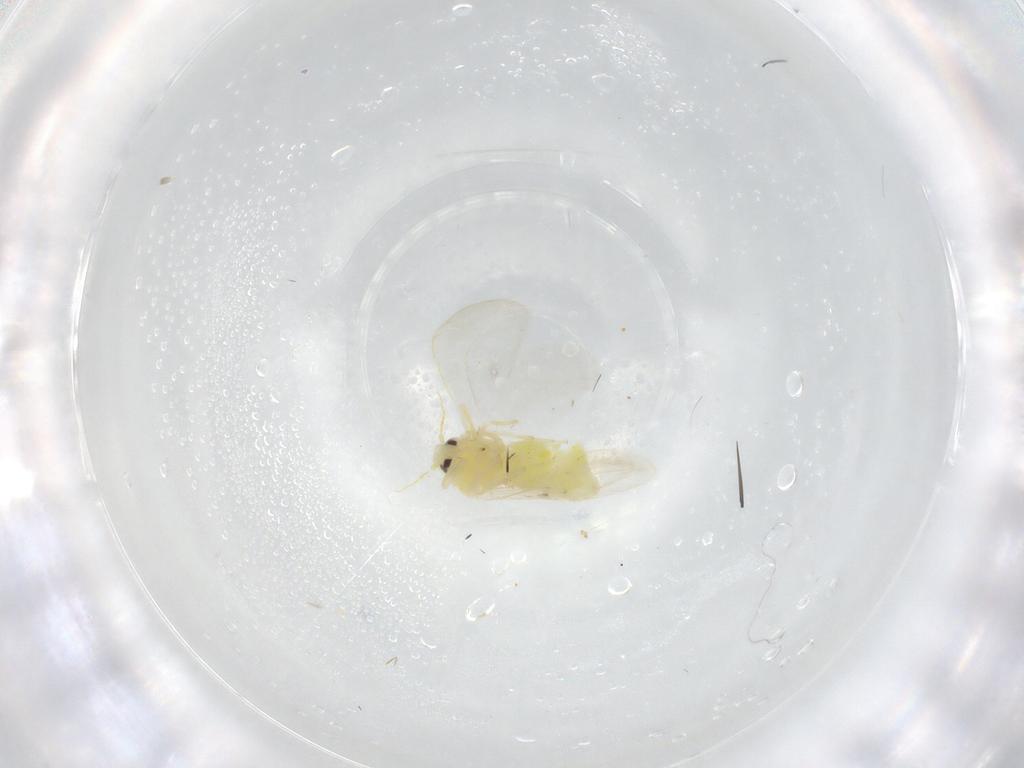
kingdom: Animalia
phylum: Arthropoda
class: Insecta
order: Hemiptera
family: Aleyrodidae
